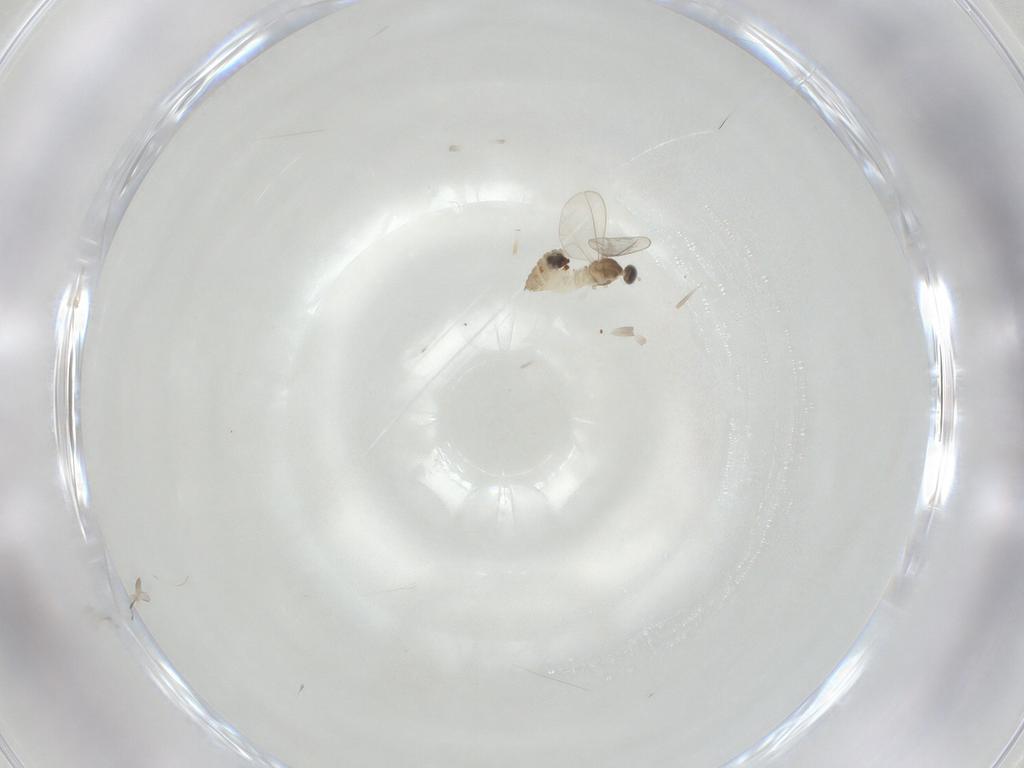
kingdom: Animalia
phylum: Arthropoda
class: Insecta
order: Diptera
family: Cecidomyiidae
